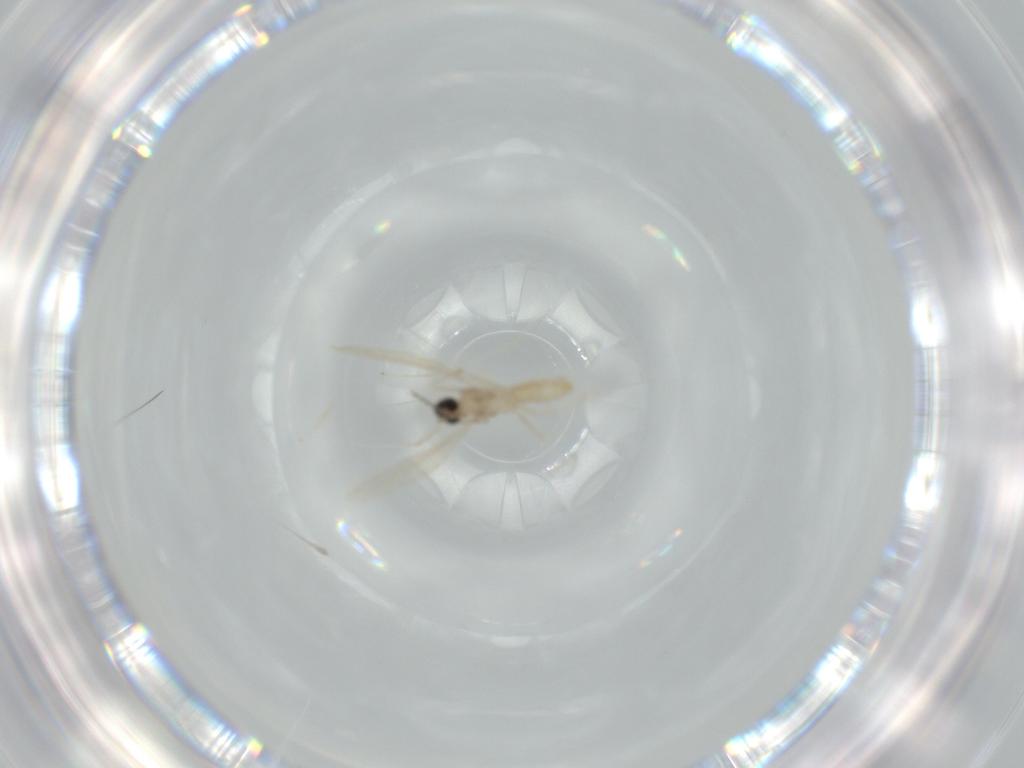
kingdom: Animalia
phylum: Arthropoda
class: Insecta
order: Diptera
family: Cecidomyiidae
